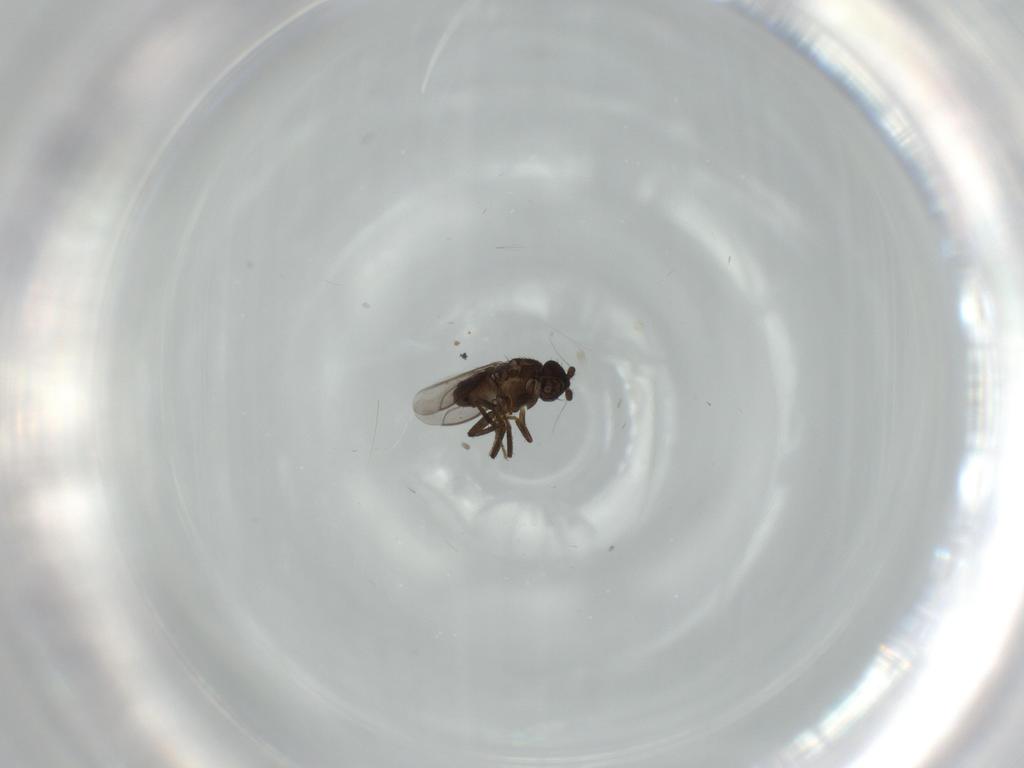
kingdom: Animalia
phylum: Arthropoda
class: Insecta
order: Diptera
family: Sphaeroceridae
